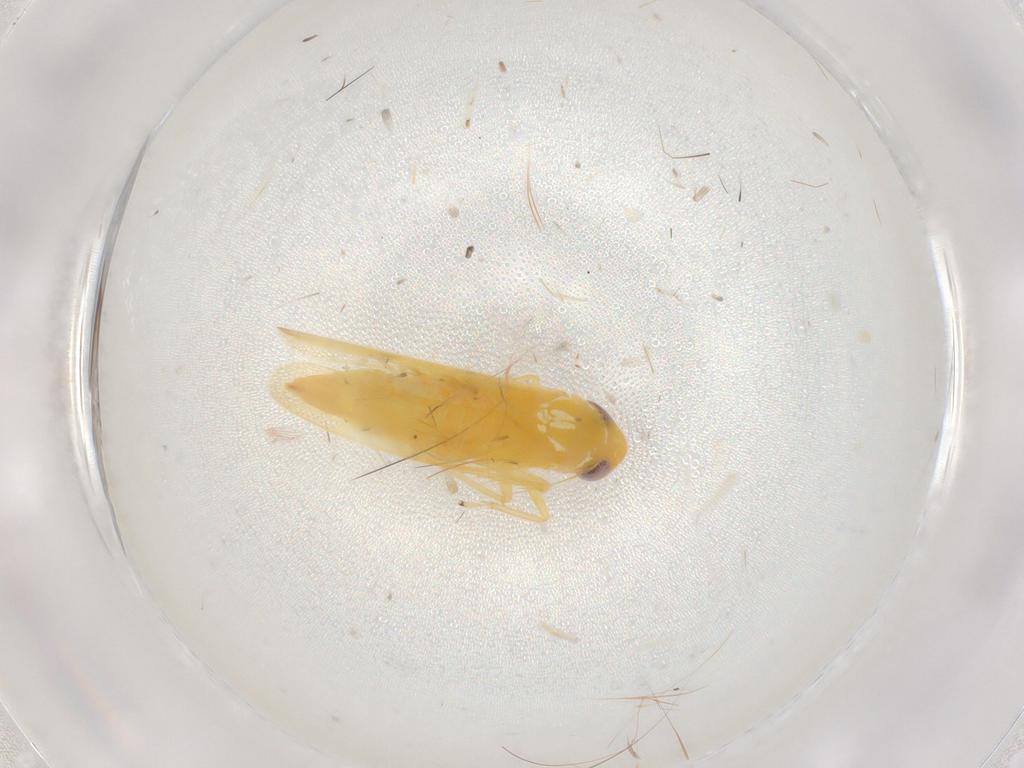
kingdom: Animalia
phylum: Arthropoda
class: Insecta
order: Hemiptera
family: Cicadellidae
